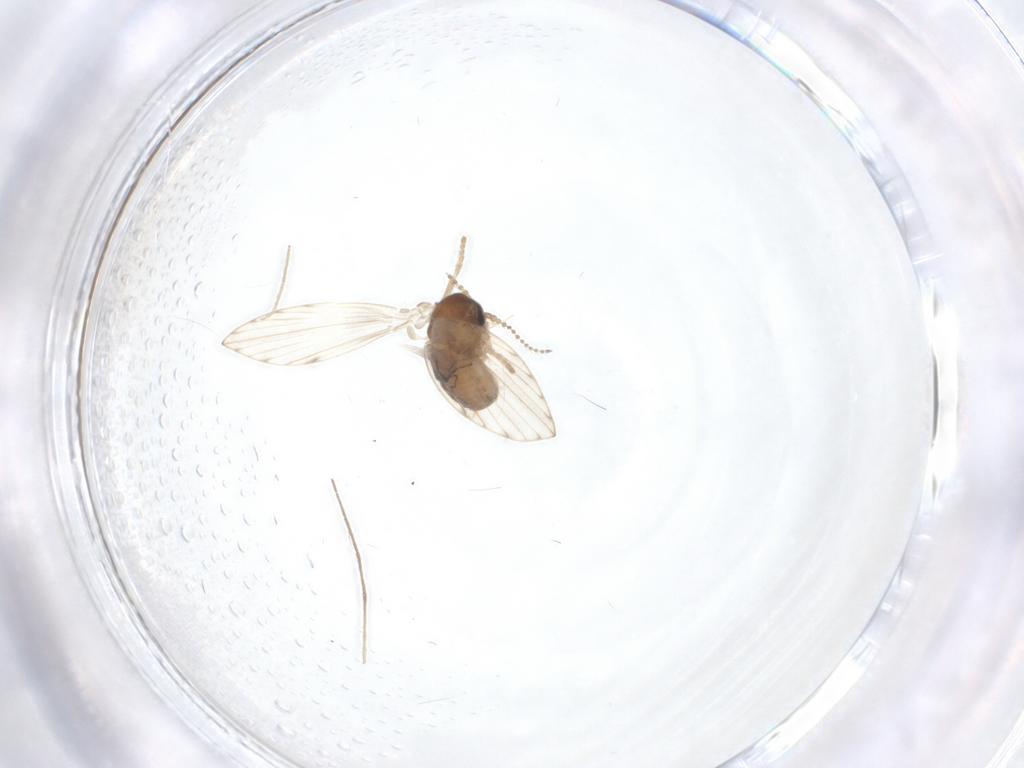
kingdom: Animalia
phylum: Arthropoda
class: Insecta
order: Diptera
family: Psychodidae
